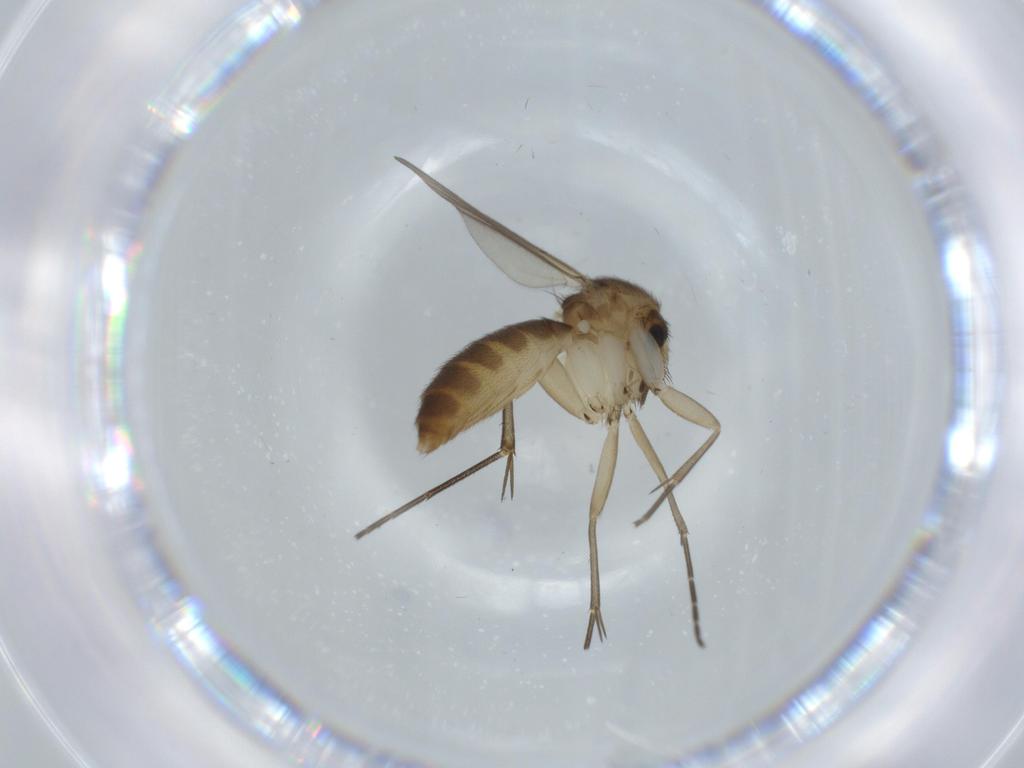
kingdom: Animalia
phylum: Arthropoda
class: Insecta
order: Diptera
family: Mycetophilidae
